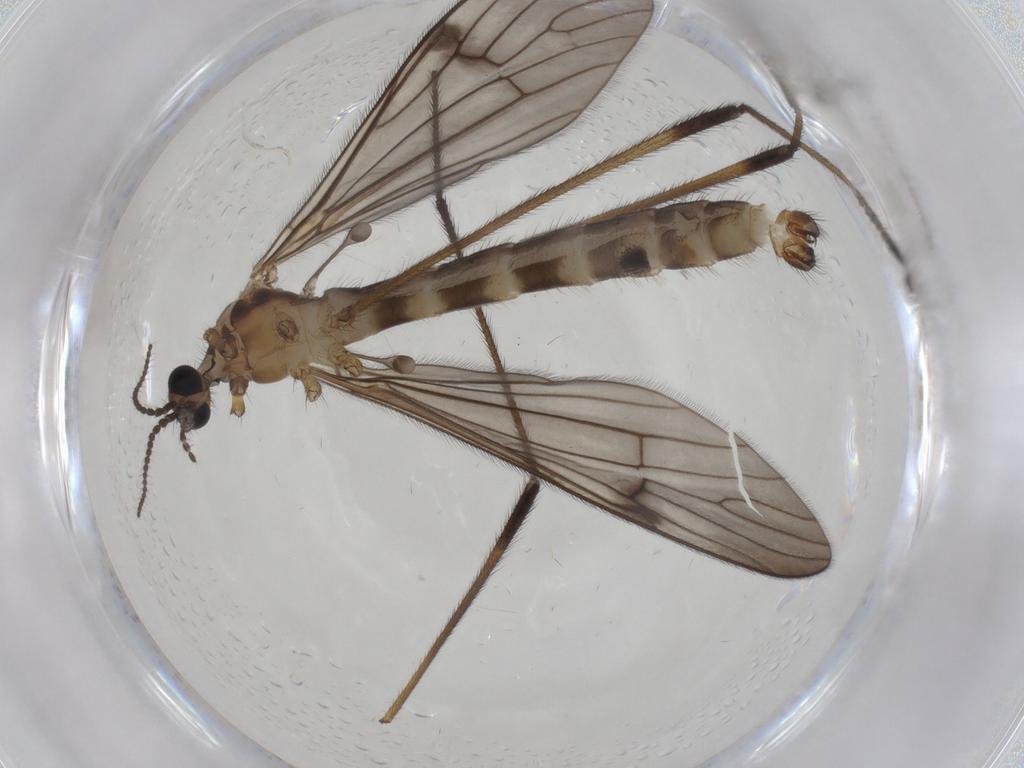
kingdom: Animalia
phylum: Arthropoda
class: Insecta
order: Diptera
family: Limoniidae
